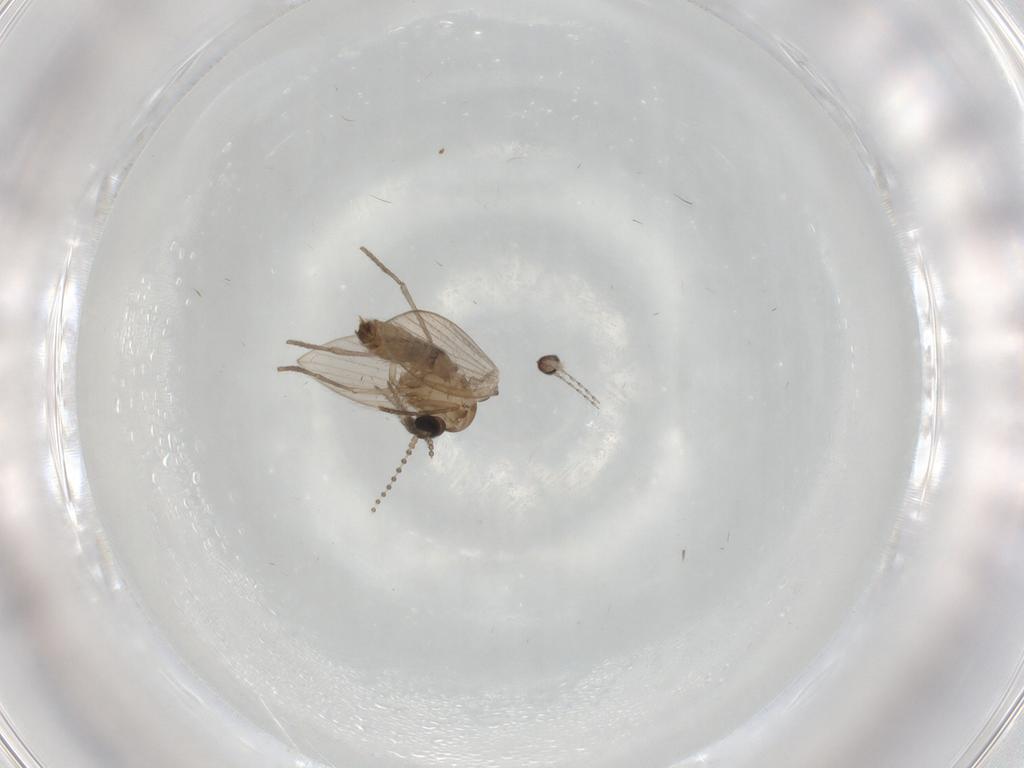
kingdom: Animalia
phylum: Arthropoda
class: Insecta
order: Diptera
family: Psychodidae
